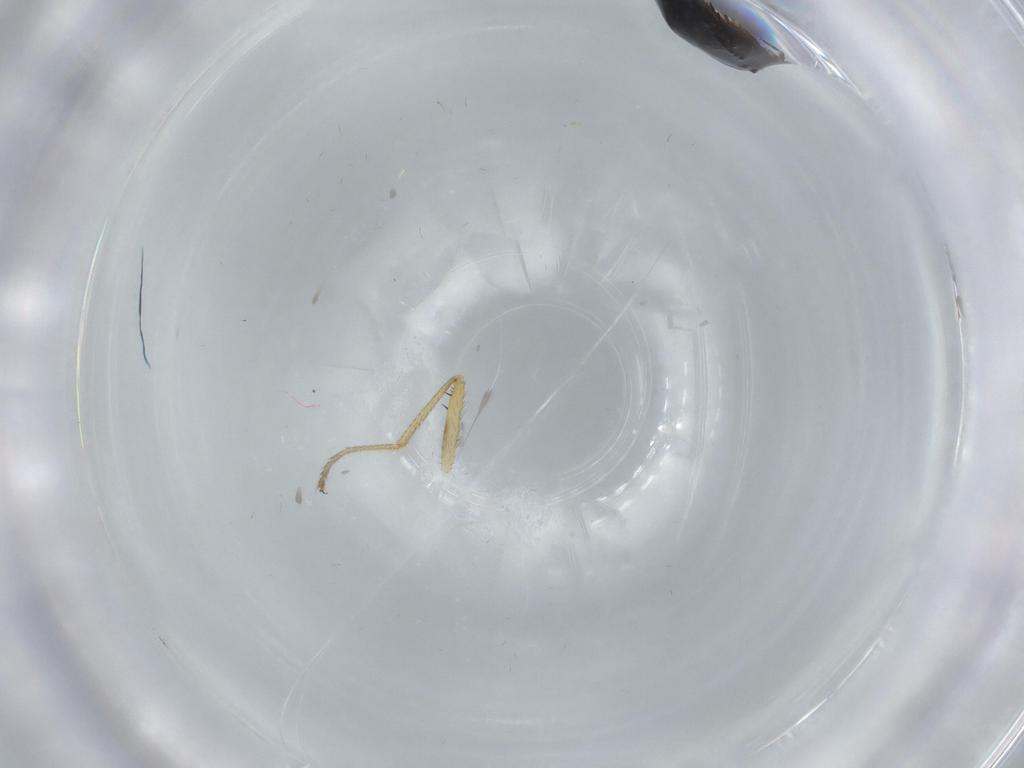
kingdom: Animalia
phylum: Arthropoda
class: Insecta
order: Trichoptera
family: Hydroptilidae
